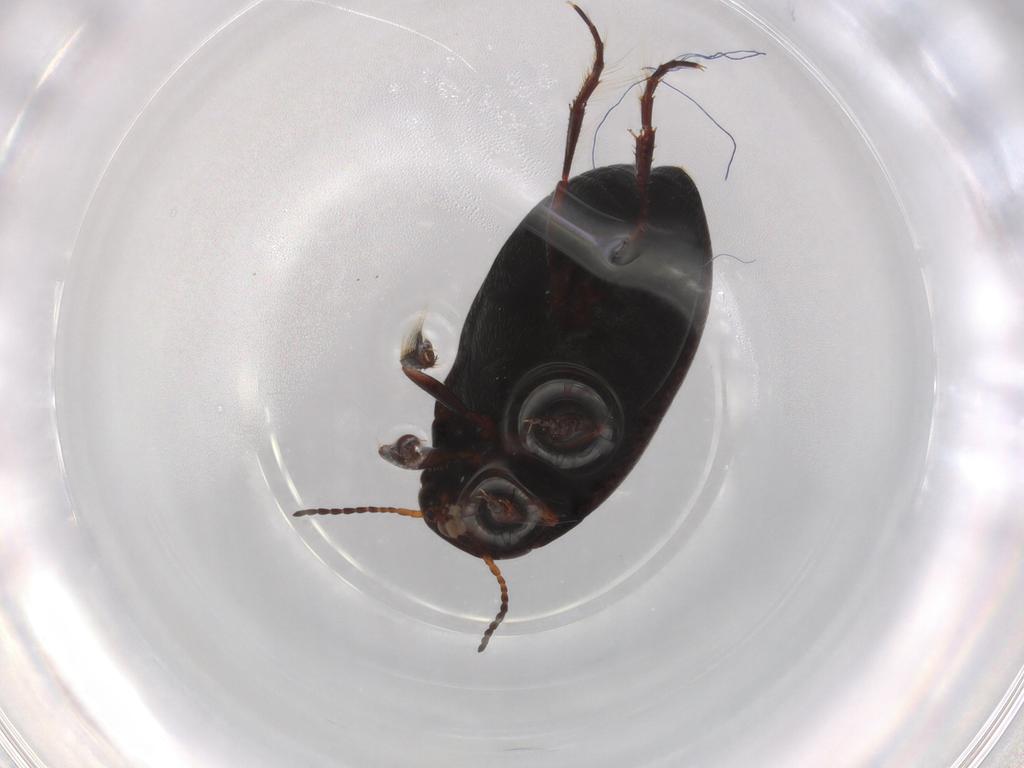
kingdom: Animalia
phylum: Arthropoda
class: Insecta
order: Coleoptera
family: Dytiscidae
